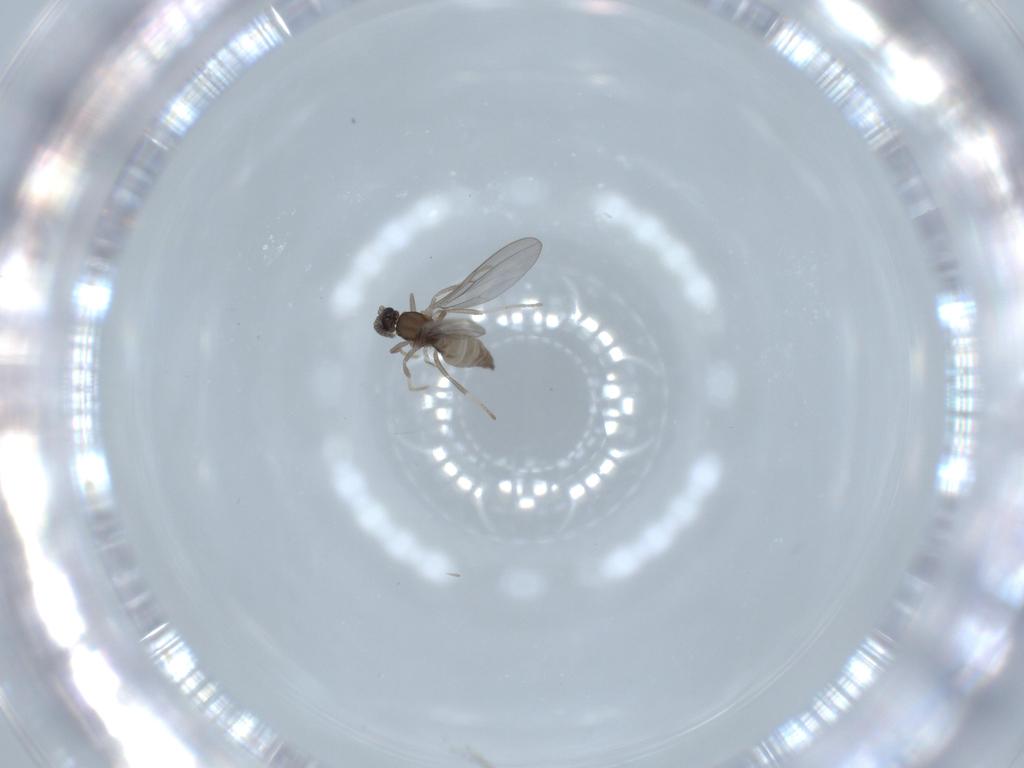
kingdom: Animalia
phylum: Arthropoda
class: Insecta
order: Diptera
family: Cecidomyiidae
